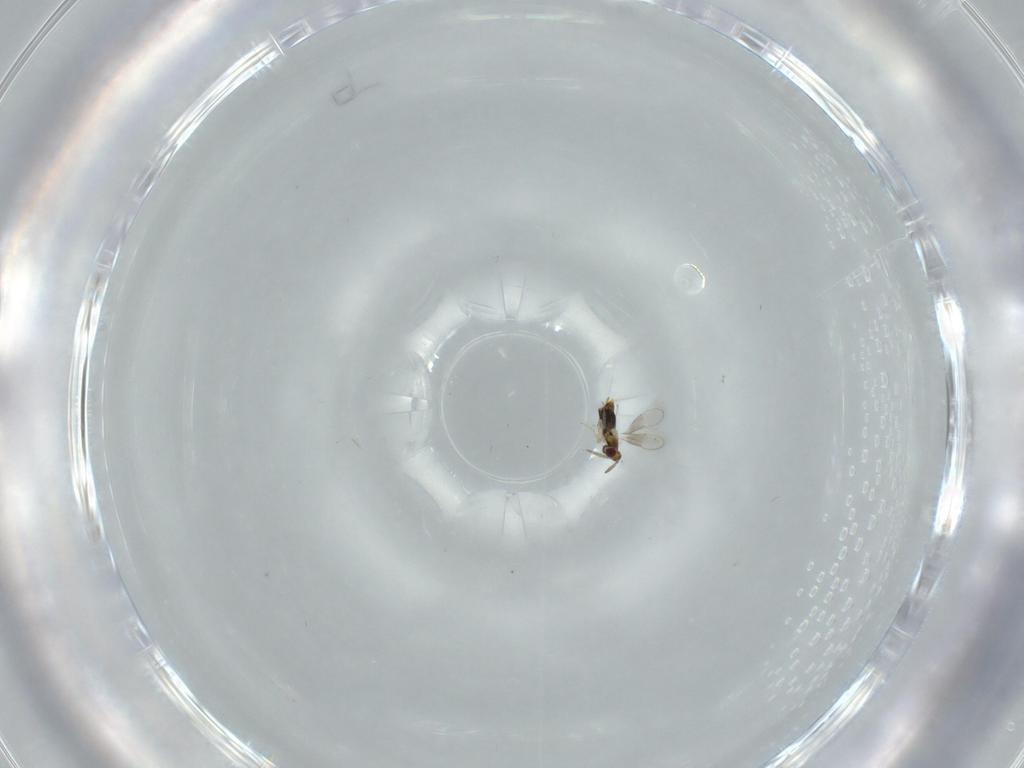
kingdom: Animalia
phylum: Arthropoda
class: Insecta
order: Hymenoptera
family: Aphelinidae
